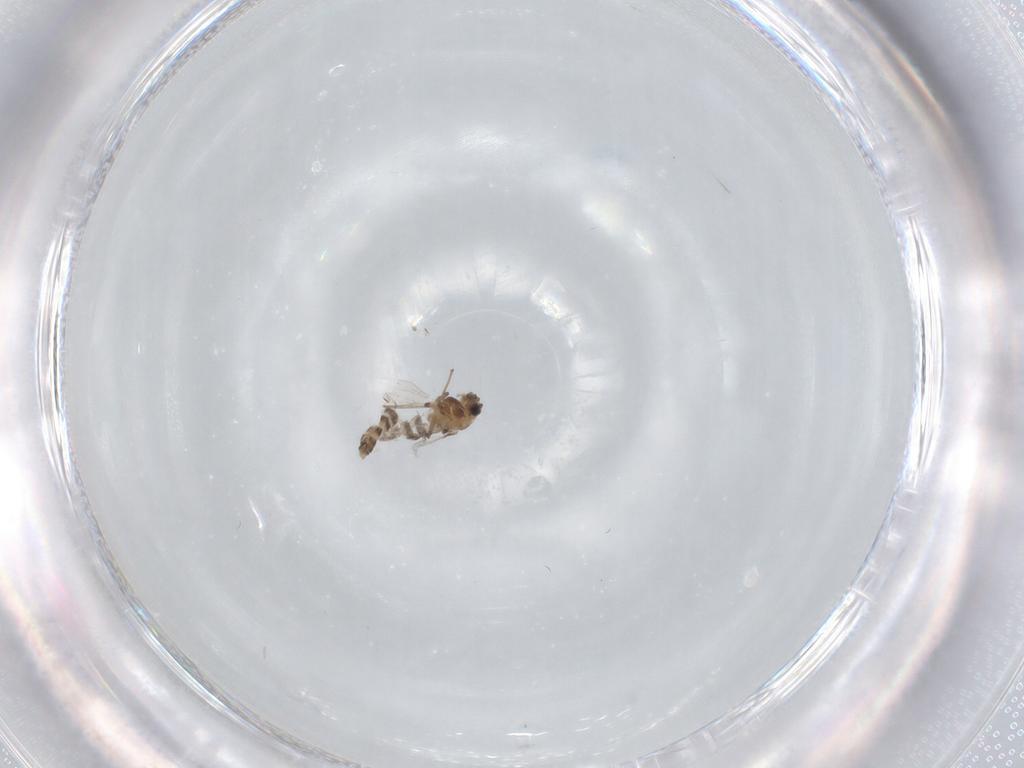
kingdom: Animalia
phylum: Arthropoda
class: Insecta
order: Diptera
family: Chironomidae
